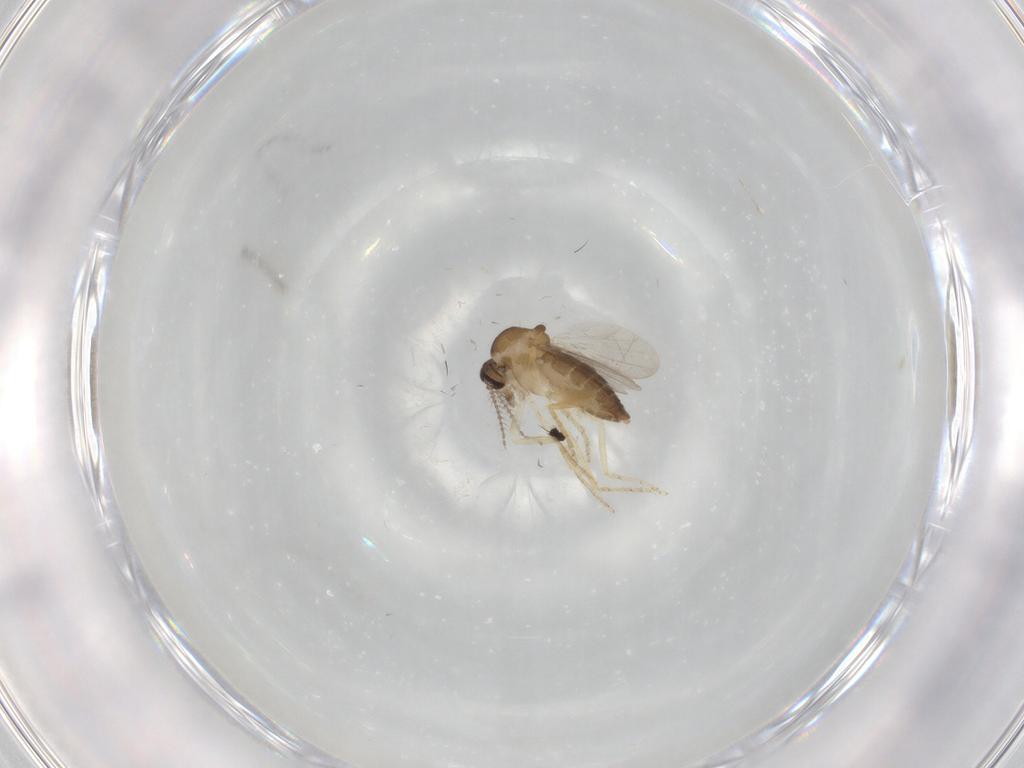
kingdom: Animalia
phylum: Arthropoda
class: Insecta
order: Diptera
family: Ceratopogonidae
